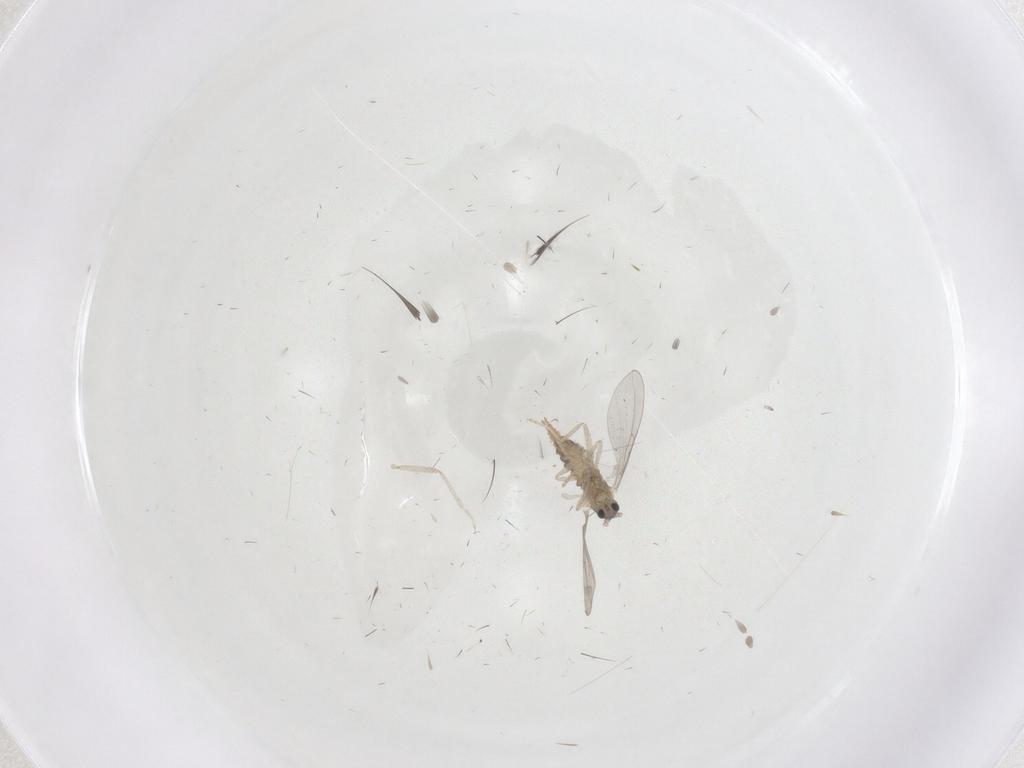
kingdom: Animalia
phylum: Arthropoda
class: Insecta
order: Diptera
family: Cecidomyiidae
